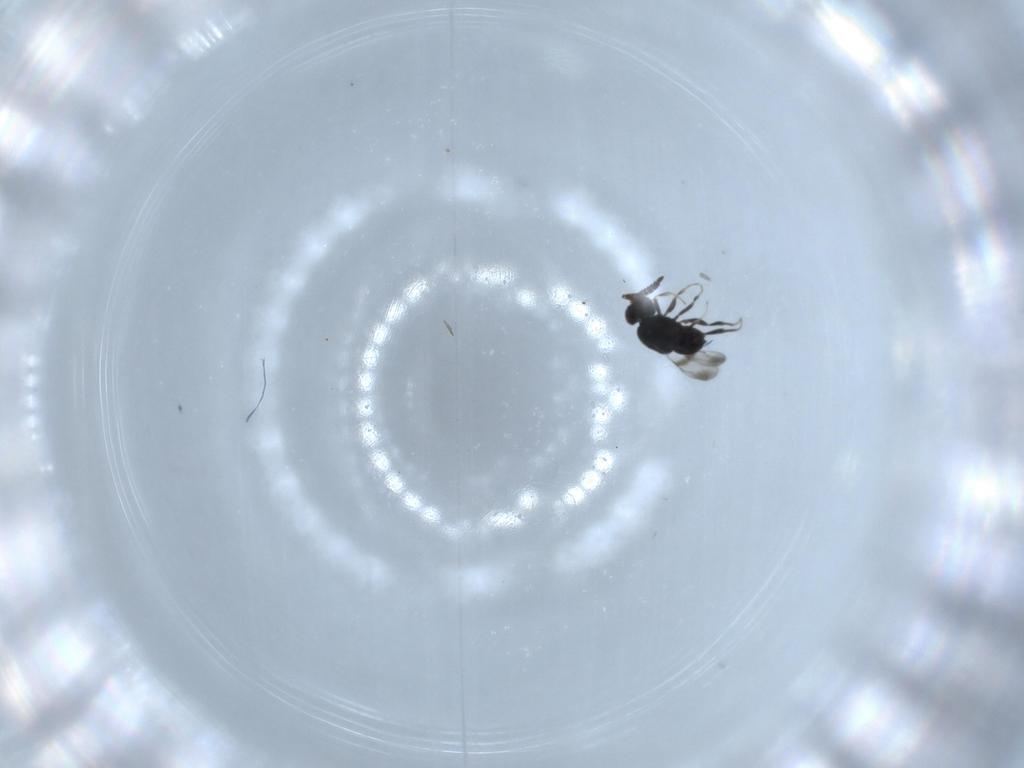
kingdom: Animalia
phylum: Arthropoda
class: Insecta
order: Hymenoptera
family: Ceraphronidae
